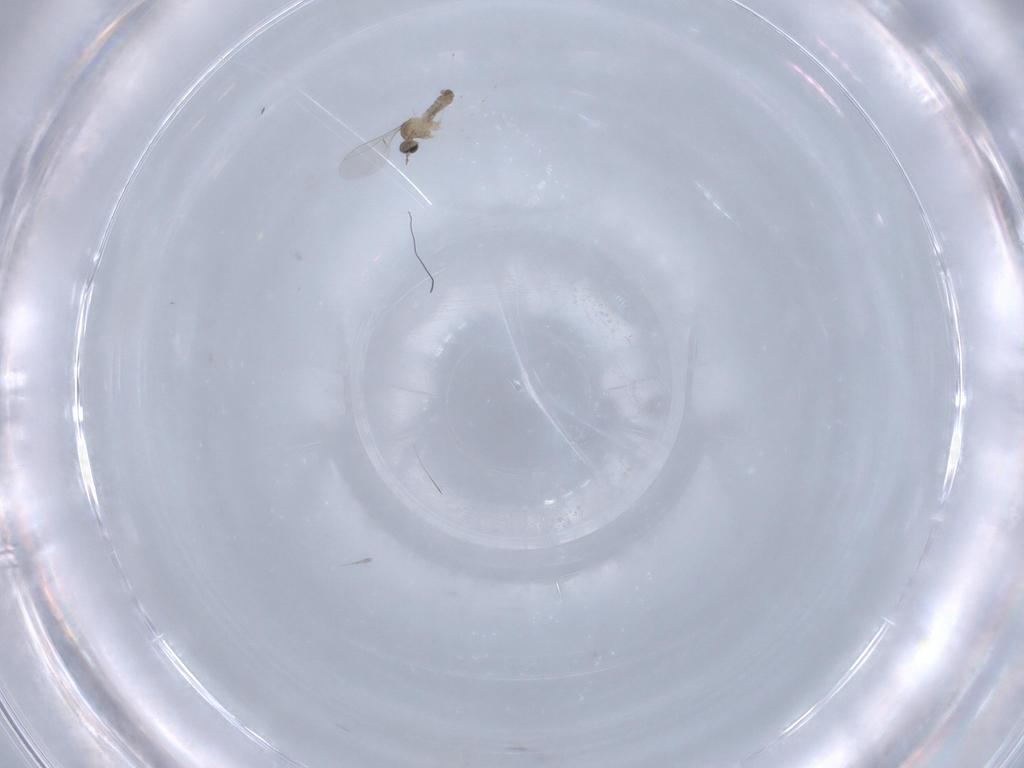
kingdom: Animalia
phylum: Arthropoda
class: Insecta
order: Diptera
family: Cecidomyiidae
